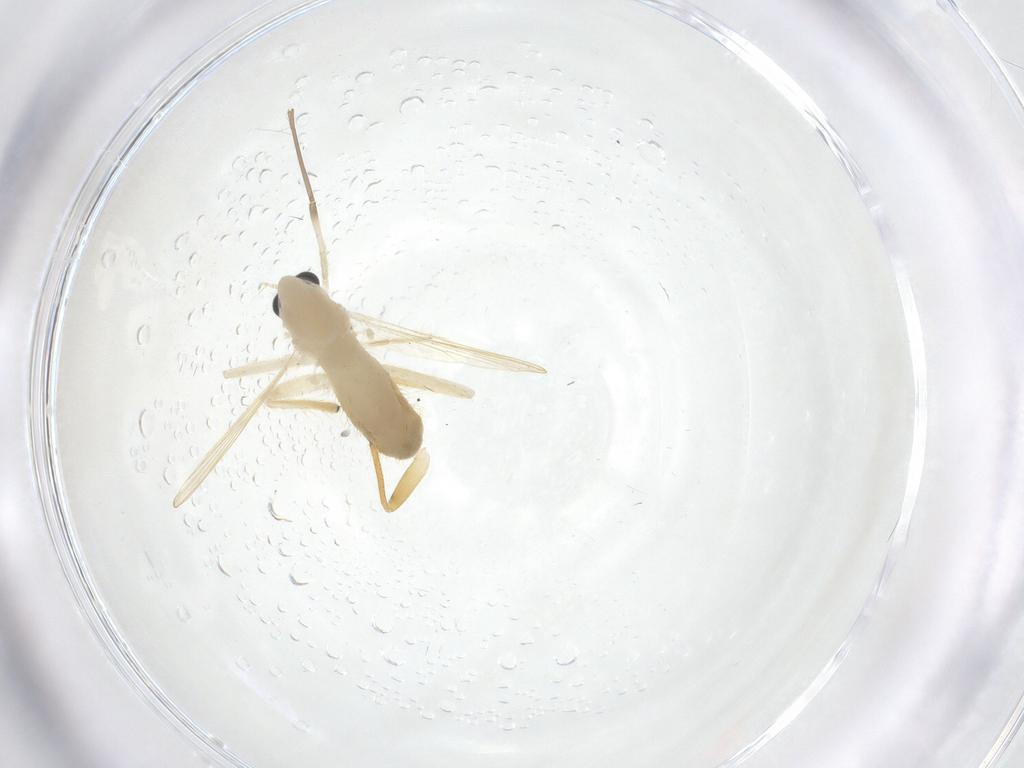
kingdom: Animalia
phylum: Arthropoda
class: Insecta
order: Diptera
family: Chironomidae
